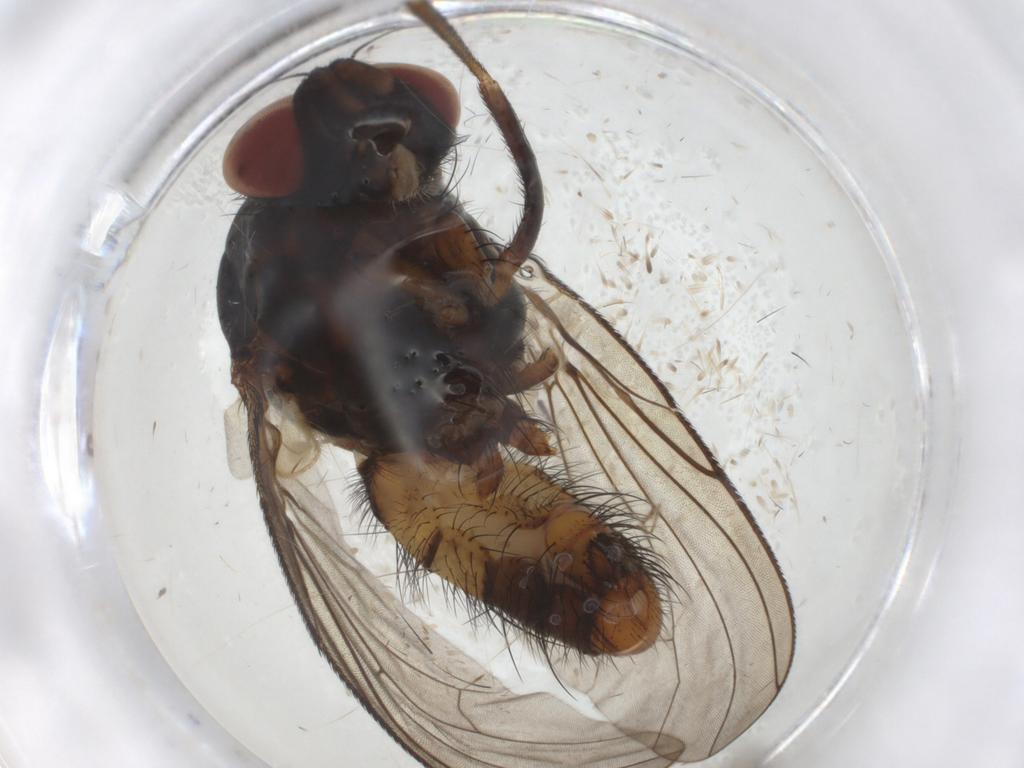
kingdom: Animalia
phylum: Arthropoda
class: Insecta
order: Diptera
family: Anthomyiidae
